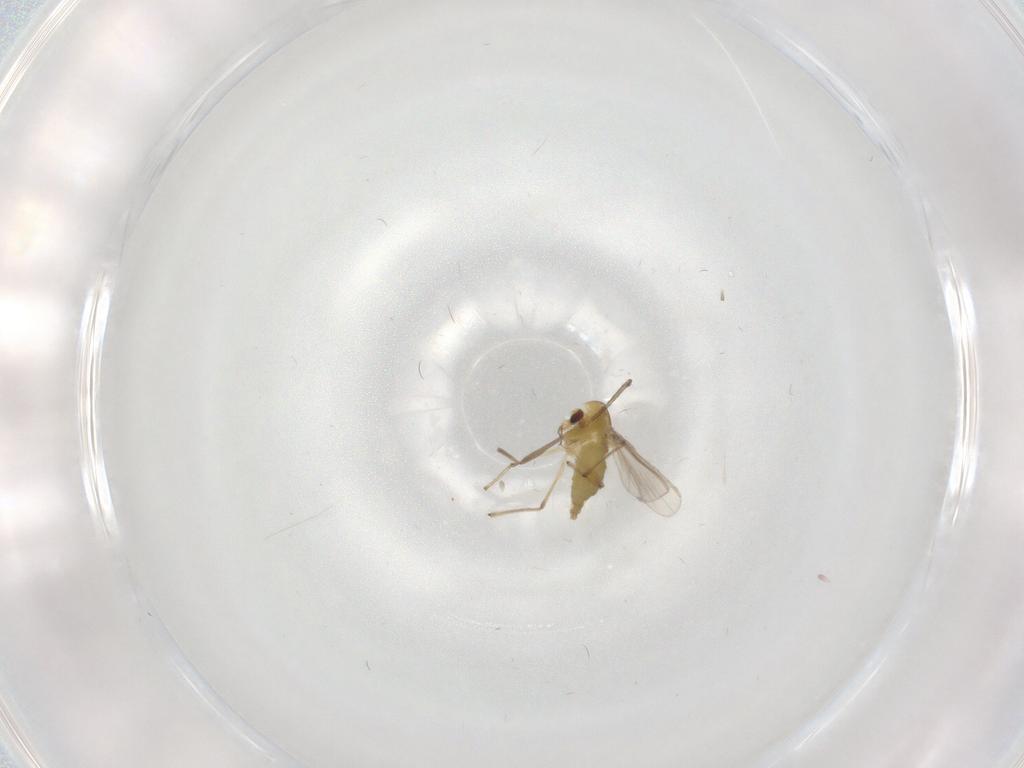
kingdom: Animalia
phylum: Arthropoda
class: Insecta
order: Diptera
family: Chironomidae
